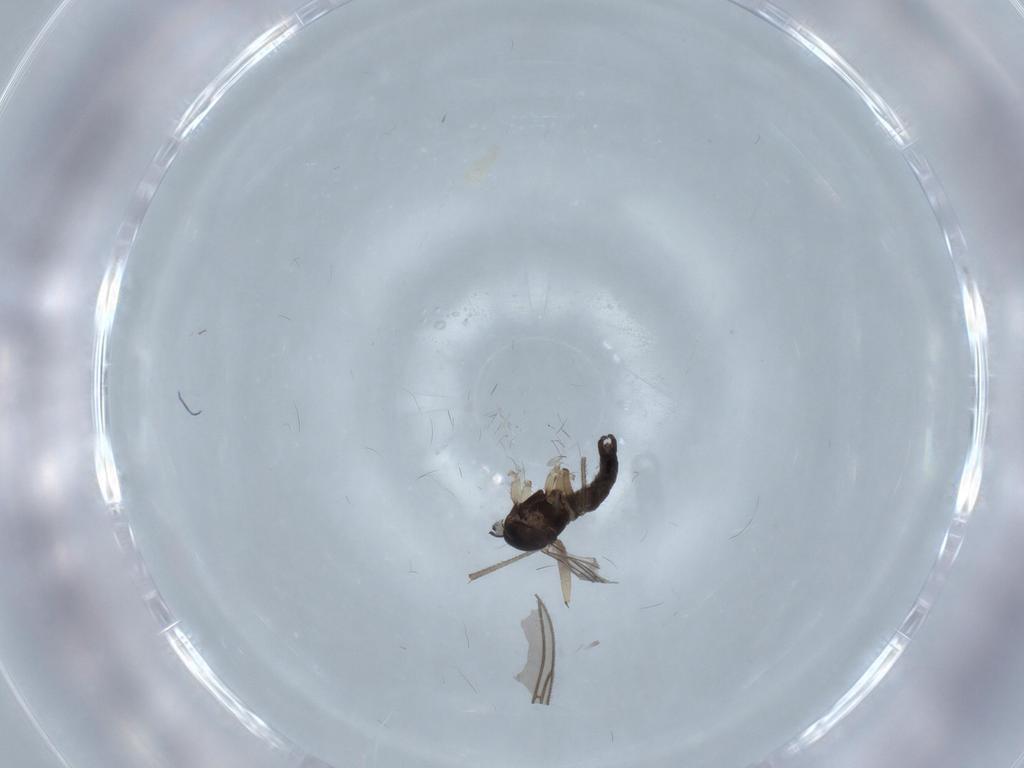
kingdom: Animalia
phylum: Arthropoda
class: Insecta
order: Diptera
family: Sciaridae
